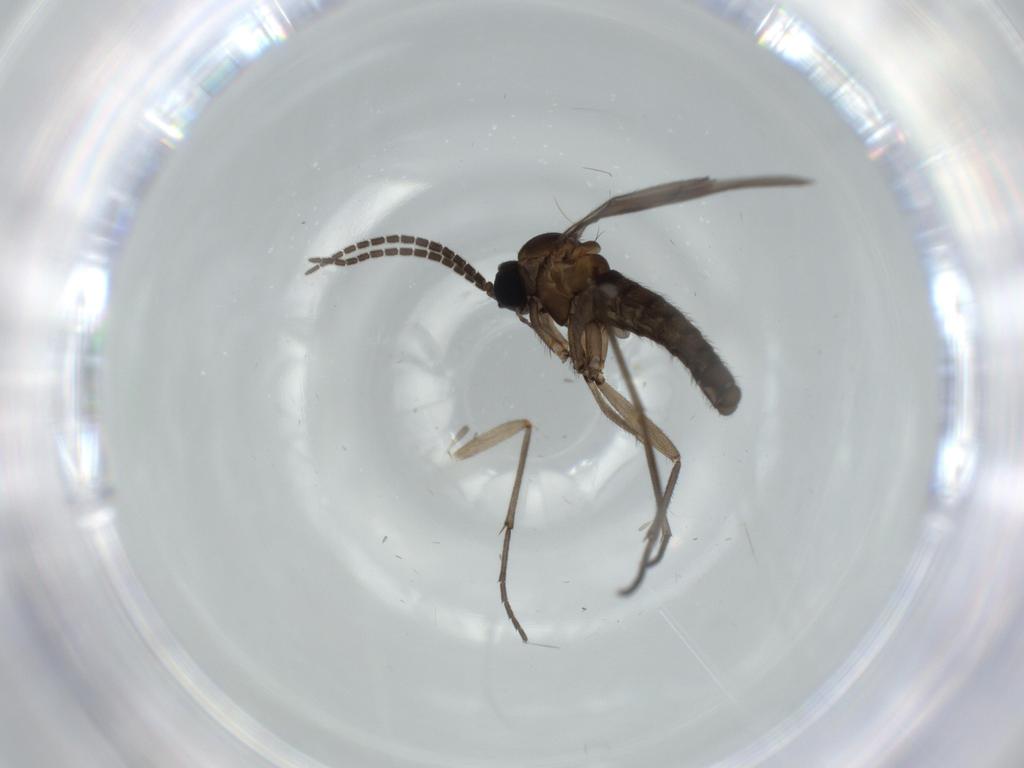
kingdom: Animalia
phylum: Arthropoda
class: Insecta
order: Diptera
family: Sciaridae
